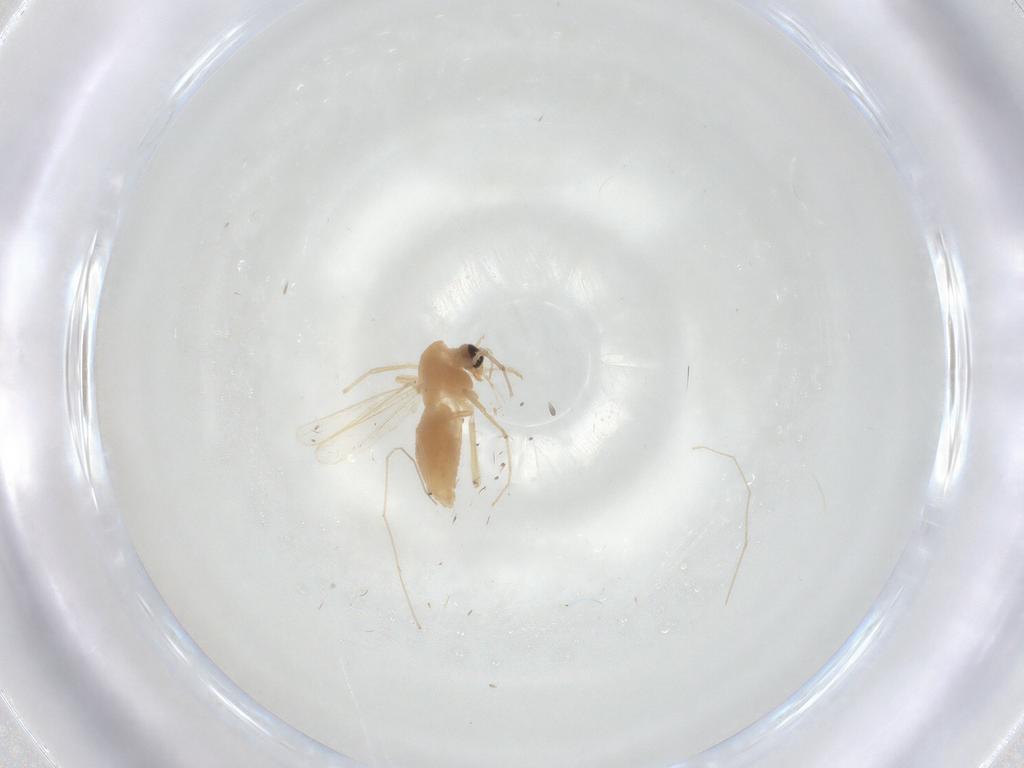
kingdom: Animalia
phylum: Arthropoda
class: Insecta
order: Diptera
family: Chironomidae
